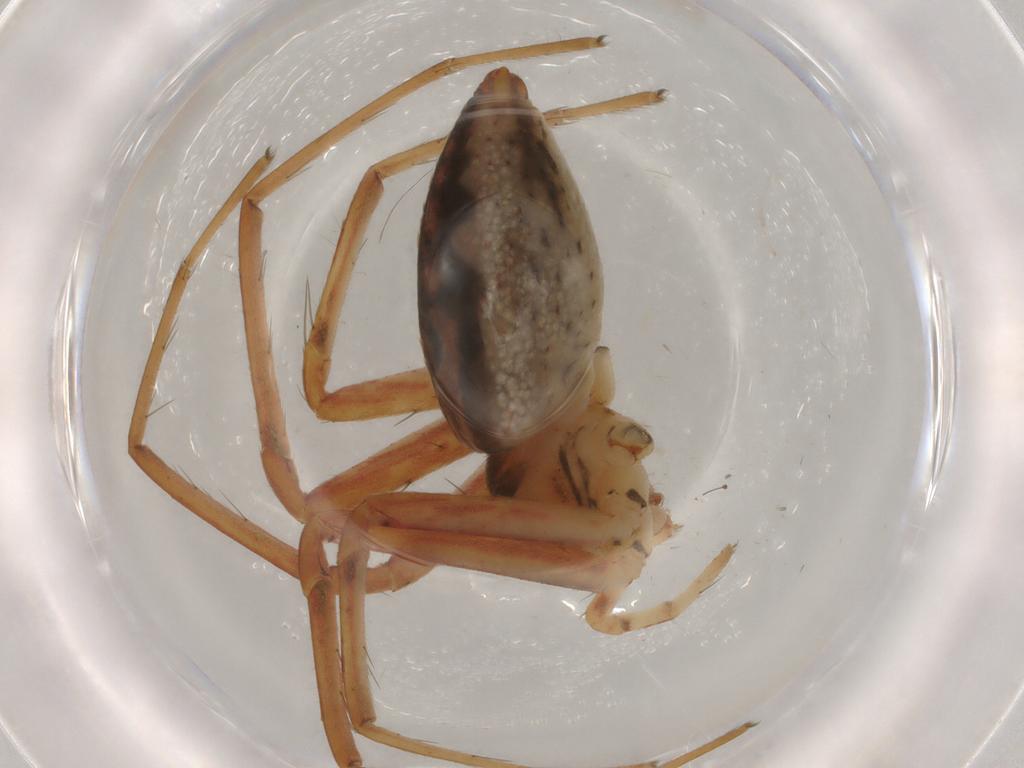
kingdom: Animalia
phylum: Arthropoda
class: Arachnida
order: Araneae
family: Pisauridae
